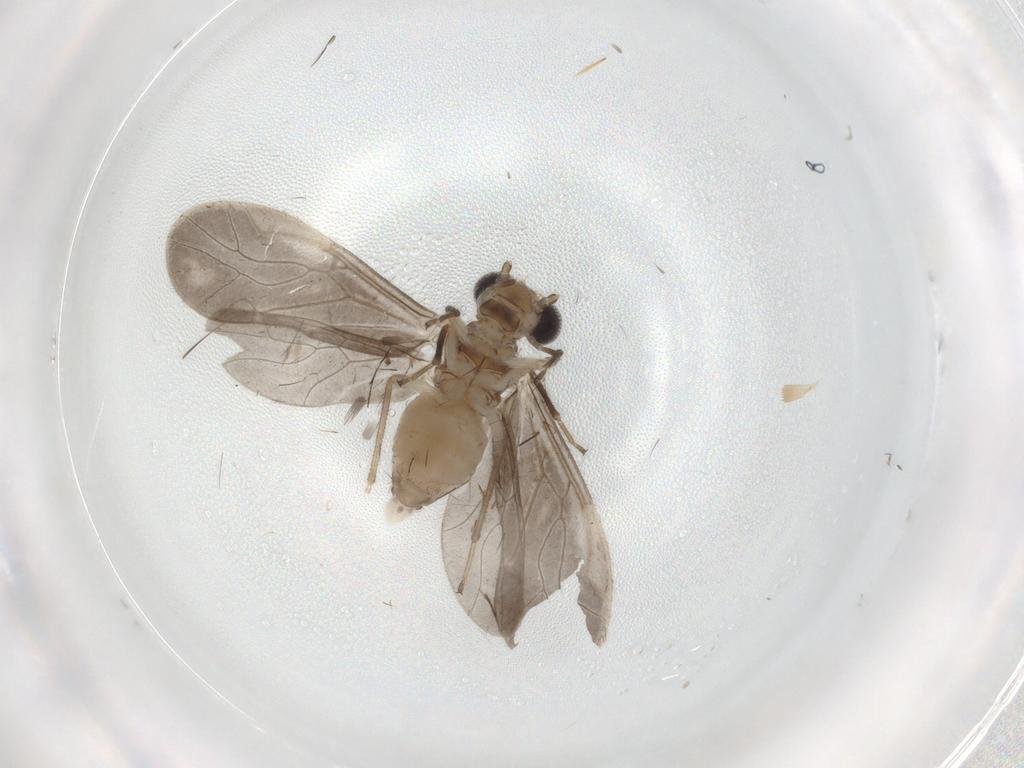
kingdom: Animalia
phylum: Arthropoda
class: Insecta
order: Psocodea
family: Caeciliusidae
